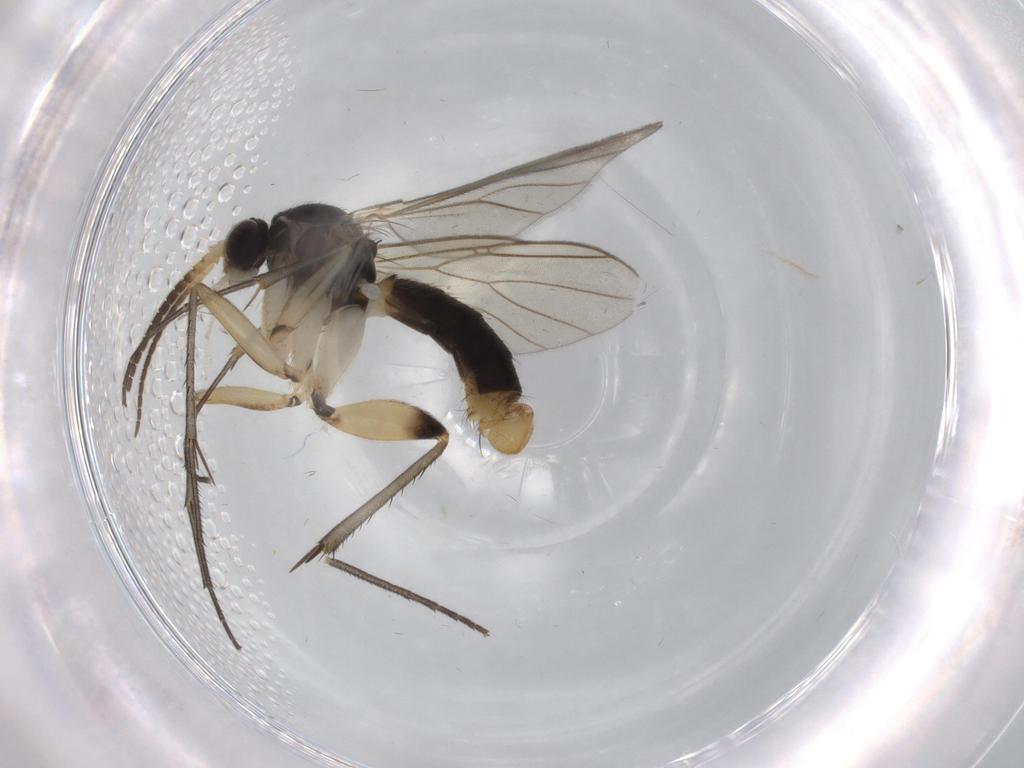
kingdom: Animalia
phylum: Arthropoda
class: Insecta
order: Diptera
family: Mycetophilidae
